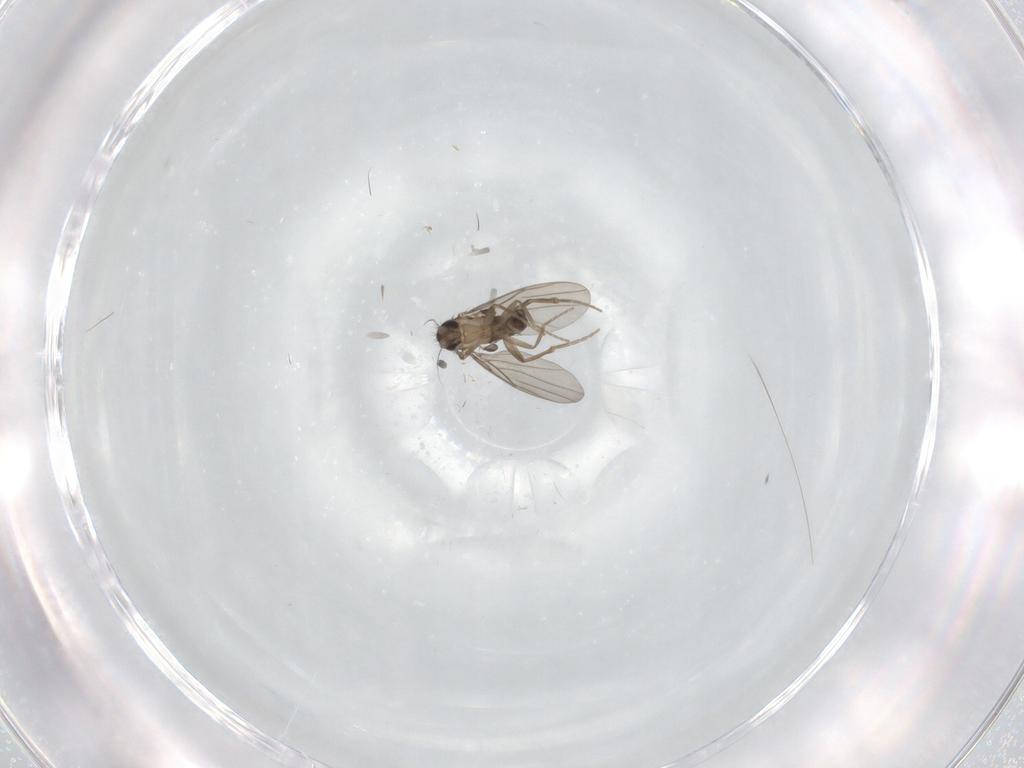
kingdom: Animalia
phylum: Arthropoda
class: Insecta
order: Diptera
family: Phoridae
